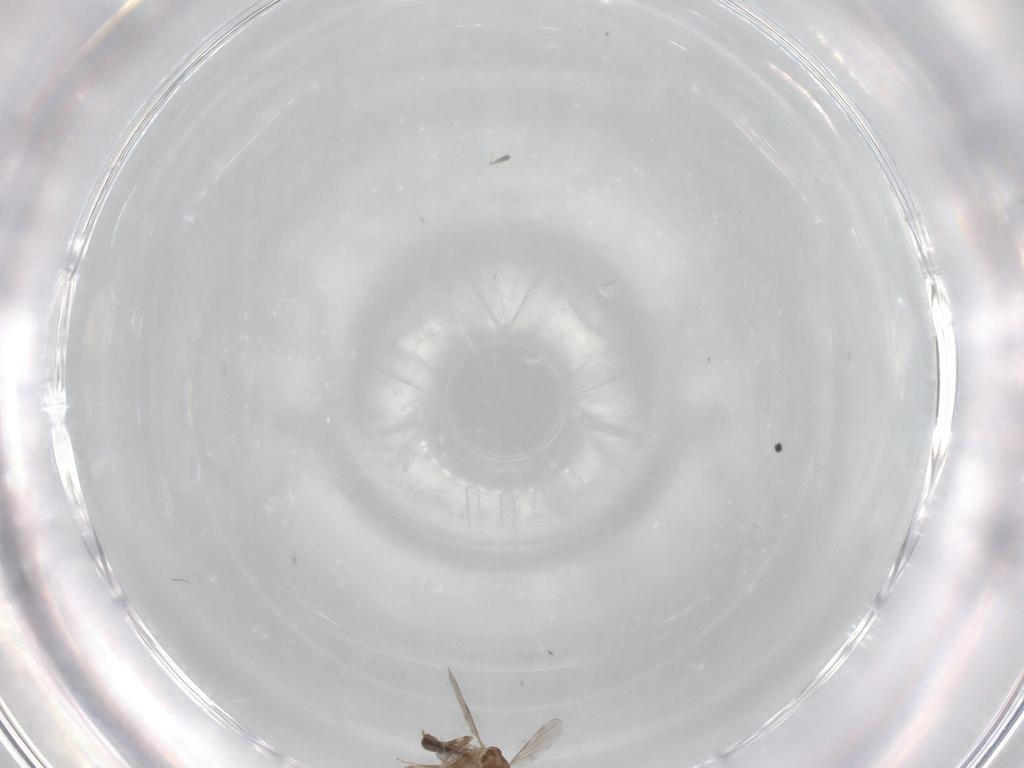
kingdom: Animalia
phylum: Arthropoda
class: Insecta
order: Diptera
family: Ceratopogonidae
